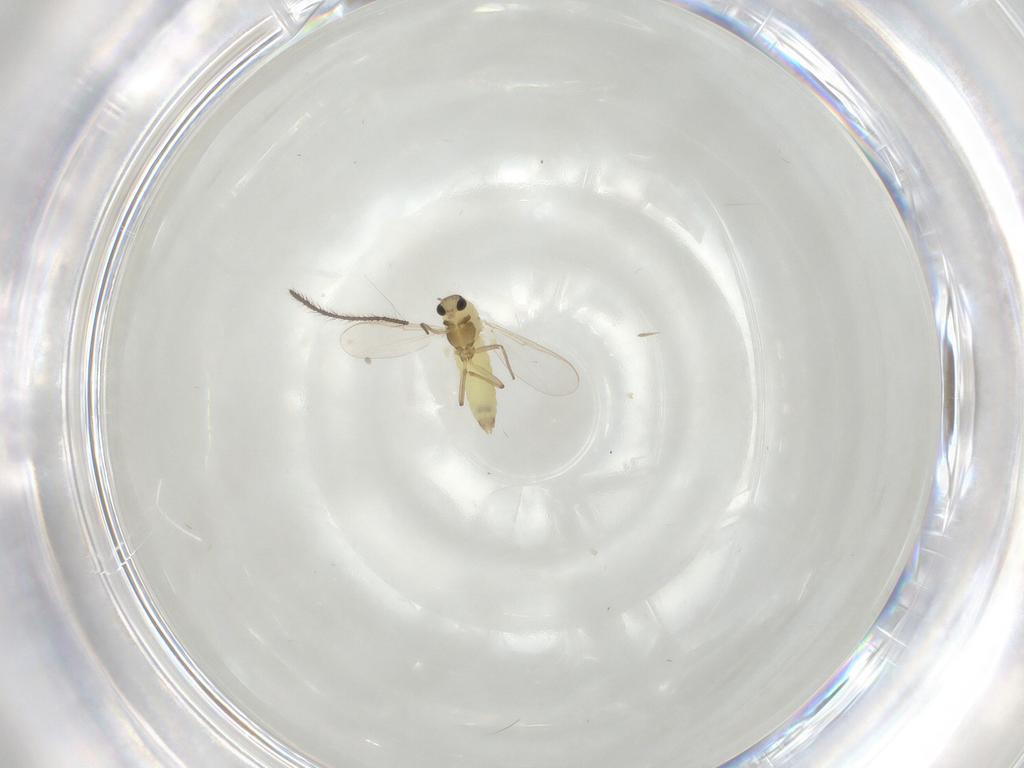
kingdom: Animalia
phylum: Arthropoda
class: Insecta
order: Diptera
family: Chironomidae
